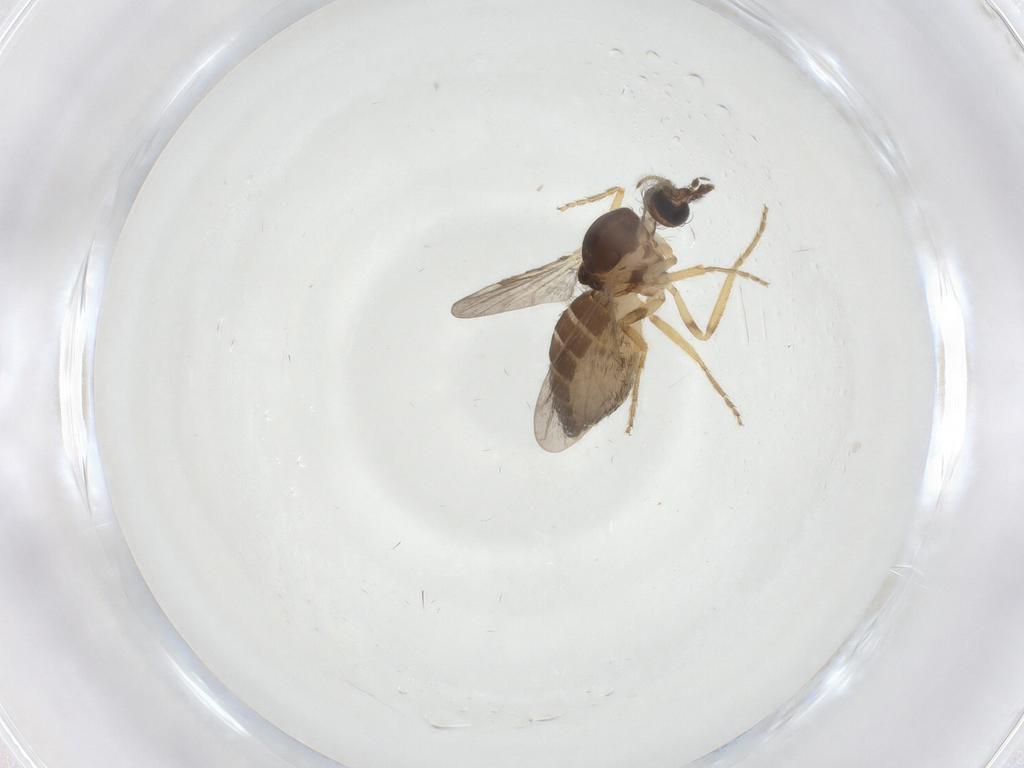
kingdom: Animalia
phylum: Arthropoda
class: Insecta
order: Diptera
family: Ceratopogonidae
